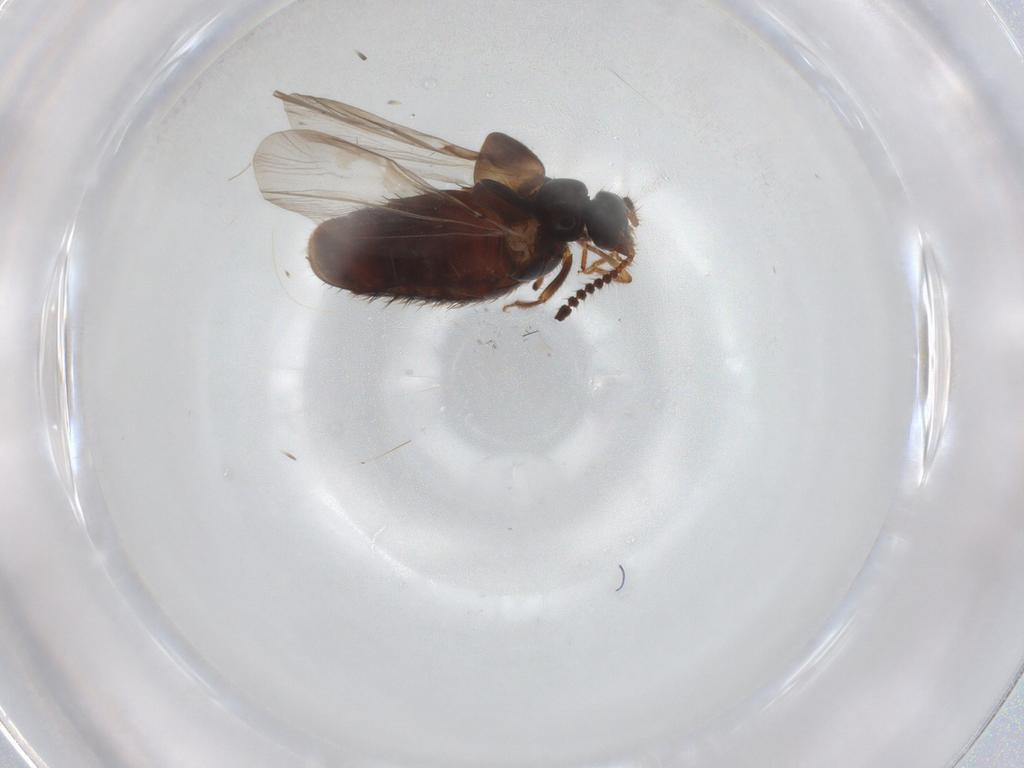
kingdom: Animalia
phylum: Arthropoda
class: Insecta
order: Coleoptera
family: Staphylinidae
